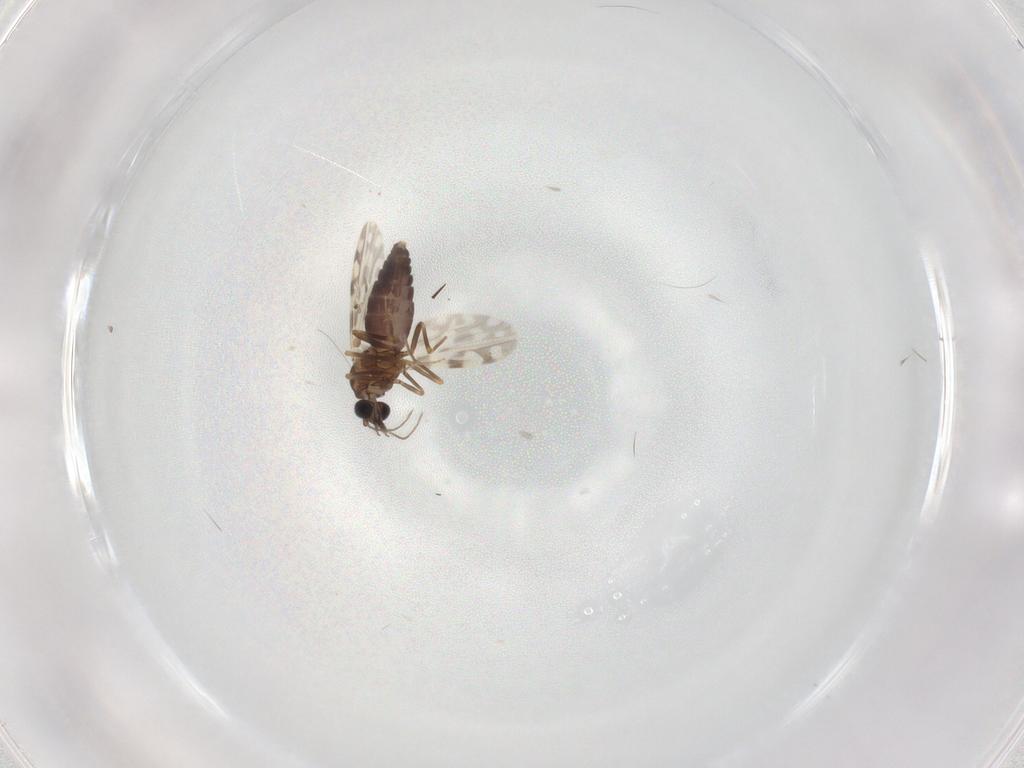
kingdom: Animalia
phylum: Arthropoda
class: Insecta
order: Diptera
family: Ceratopogonidae
